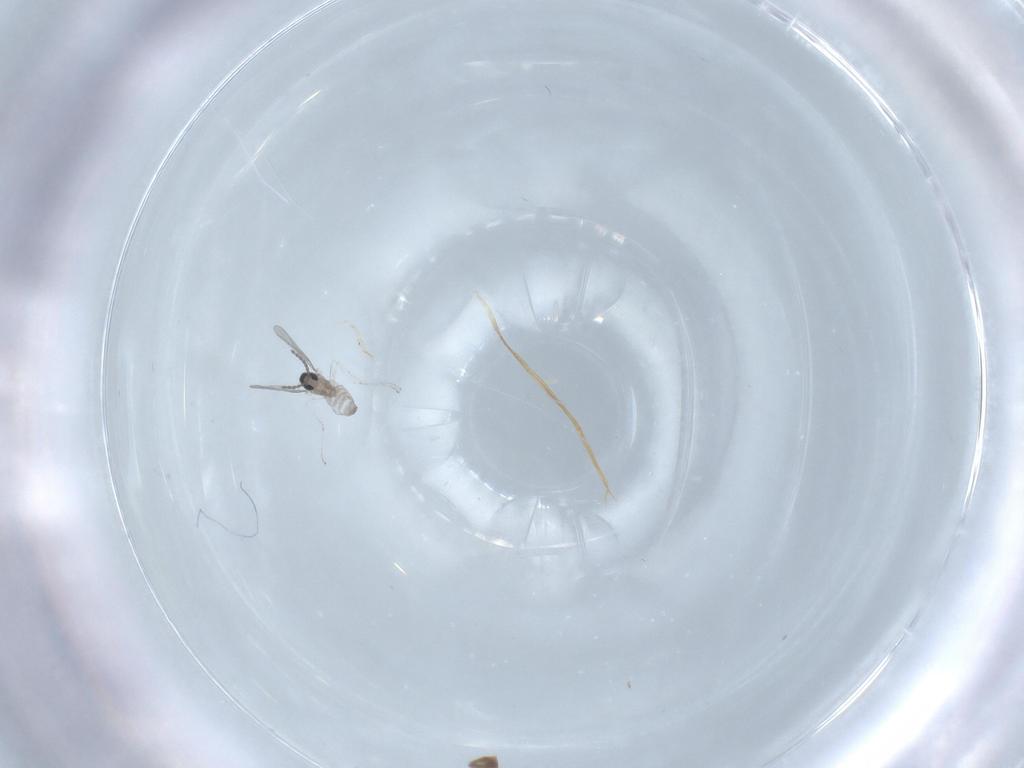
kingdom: Animalia
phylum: Arthropoda
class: Insecta
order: Diptera
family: Cecidomyiidae
